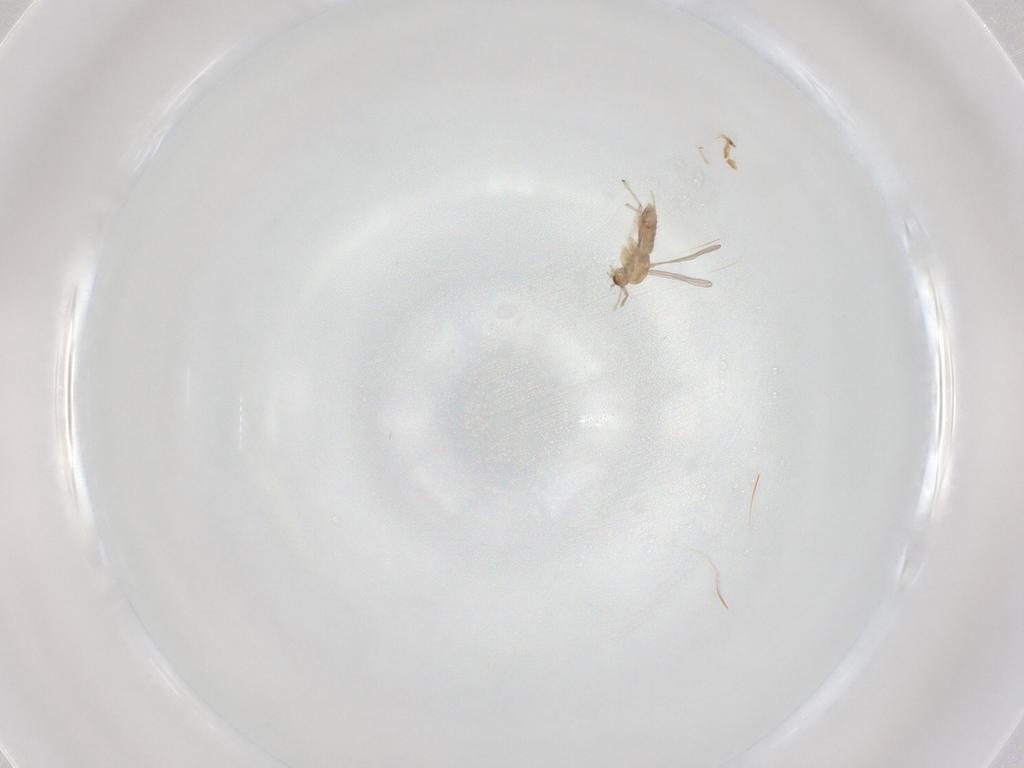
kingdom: Animalia
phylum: Arthropoda
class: Insecta
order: Diptera
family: Chironomidae
